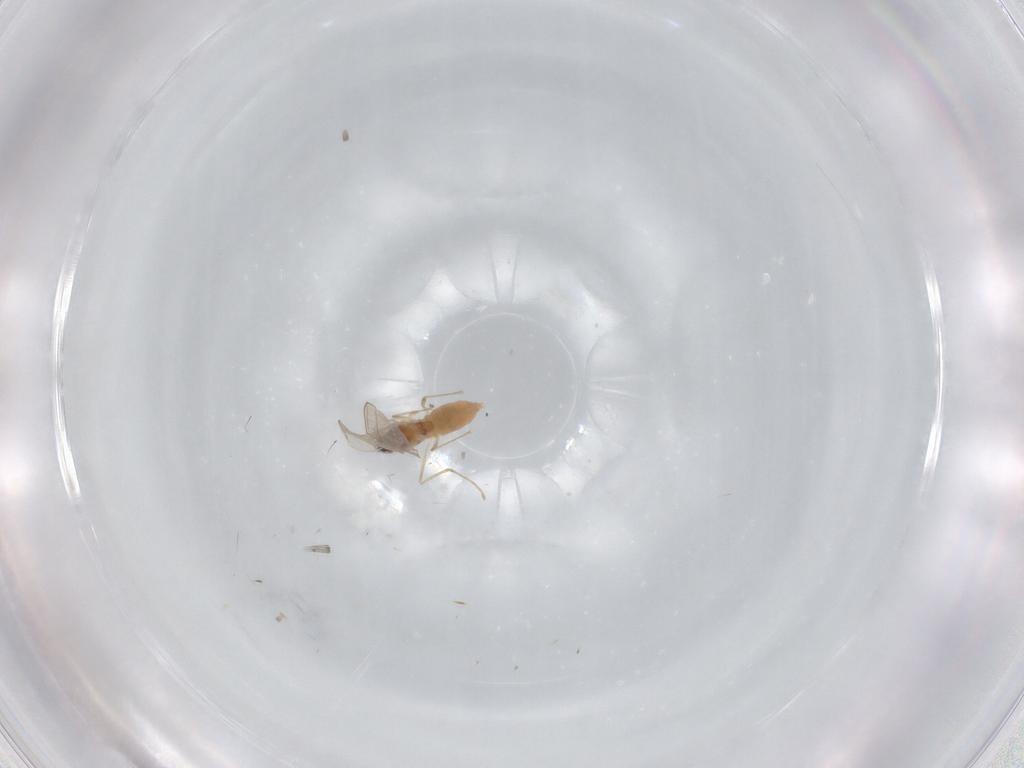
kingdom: Animalia
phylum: Arthropoda
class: Insecta
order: Diptera
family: Cecidomyiidae
